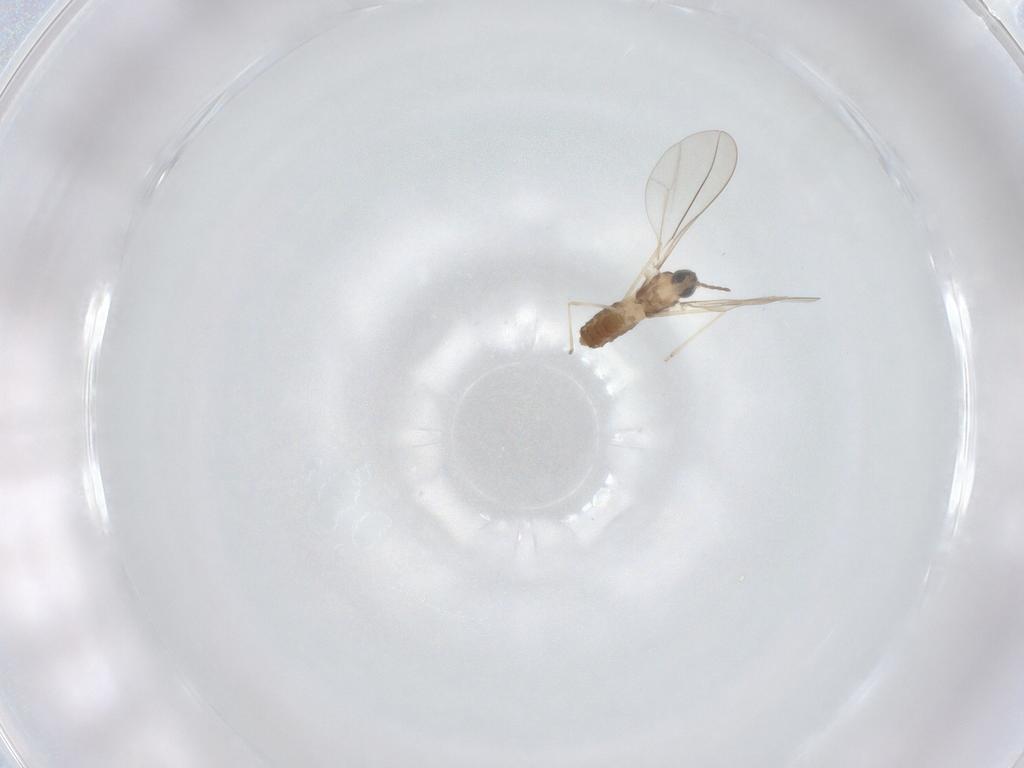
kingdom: Animalia
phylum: Arthropoda
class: Insecta
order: Diptera
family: Cecidomyiidae
